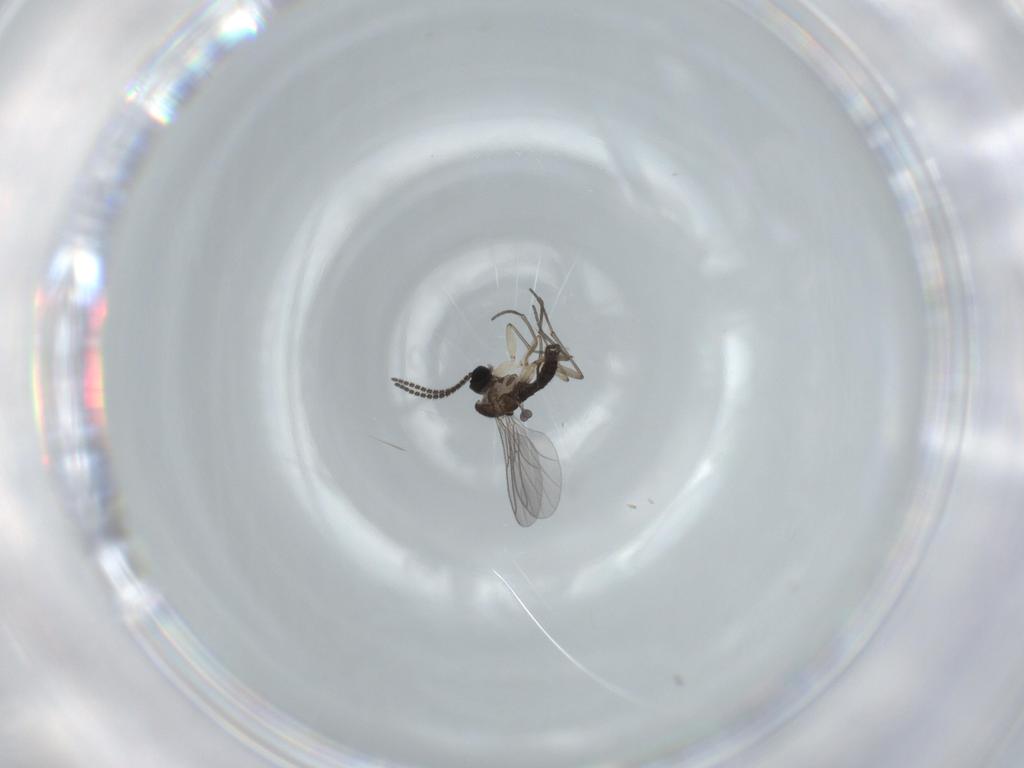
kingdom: Animalia
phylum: Arthropoda
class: Insecta
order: Diptera
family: Sciaridae
